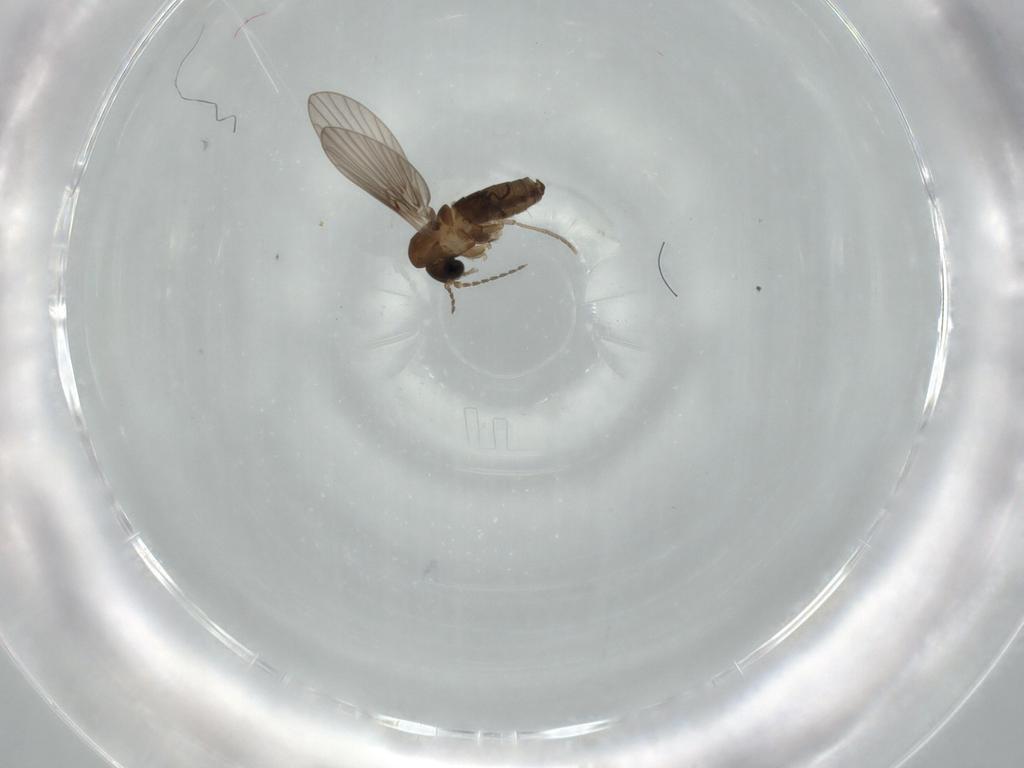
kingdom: Animalia
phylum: Arthropoda
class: Insecta
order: Diptera
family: Psychodidae
